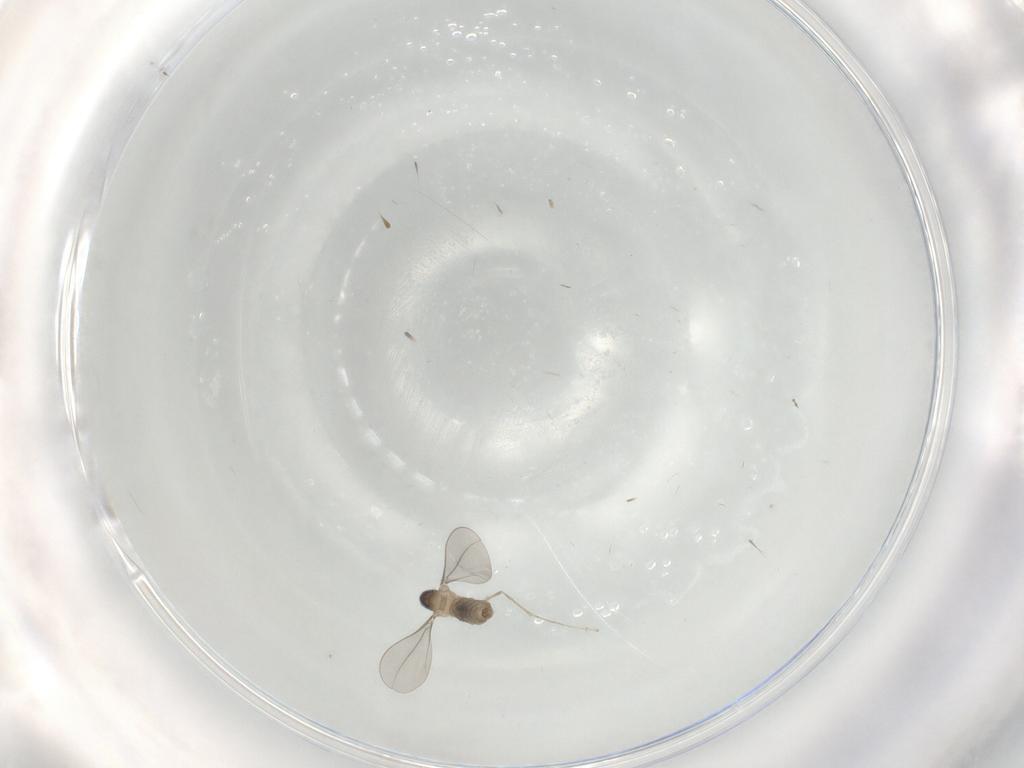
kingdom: Animalia
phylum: Arthropoda
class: Insecta
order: Diptera
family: Cecidomyiidae
